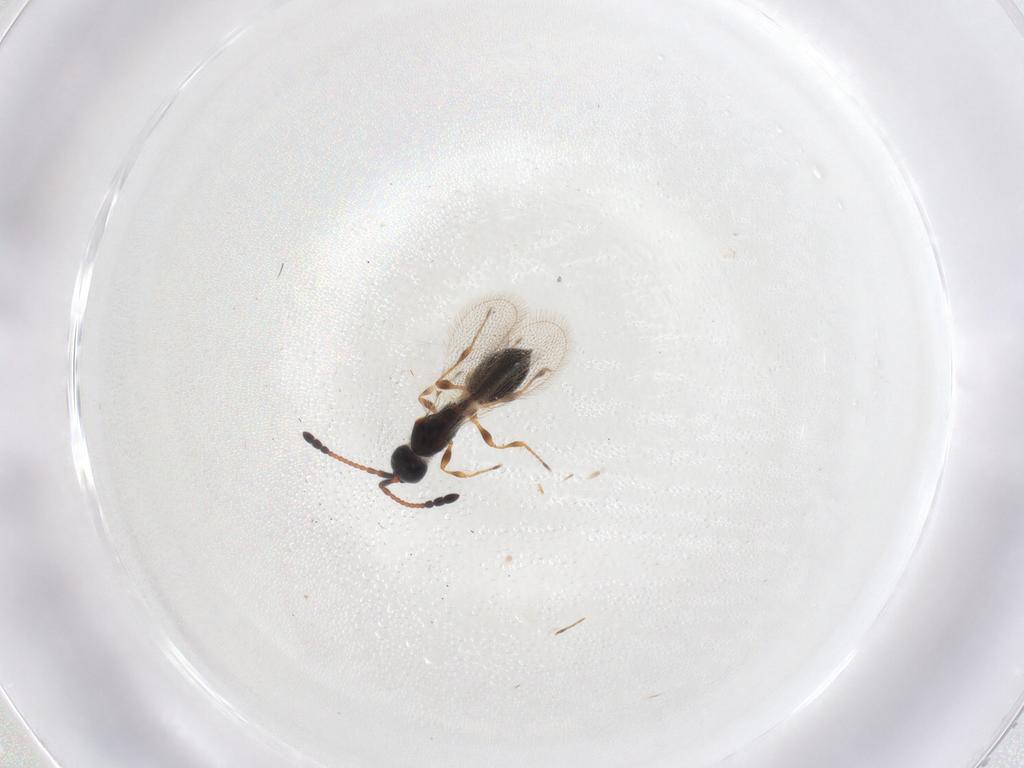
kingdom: Animalia
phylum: Arthropoda
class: Insecta
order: Hymenoptera
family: Diapriidae
